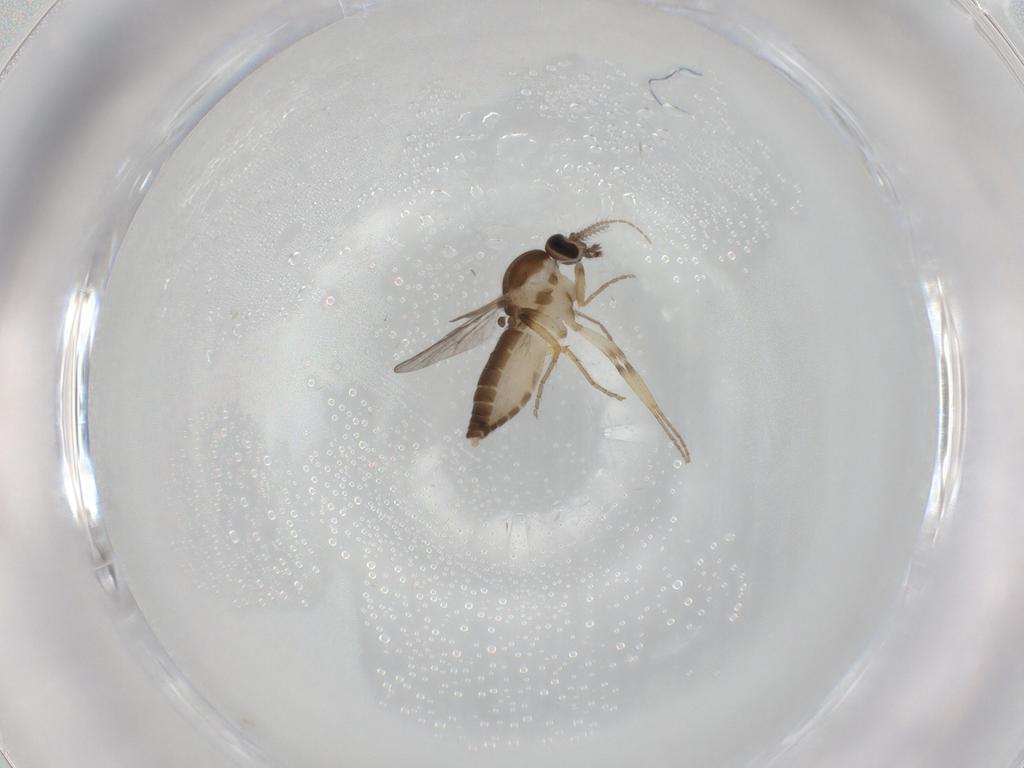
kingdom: Animalia
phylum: Arthropoda
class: Insecta
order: Diptera
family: Ceratopogonidae
